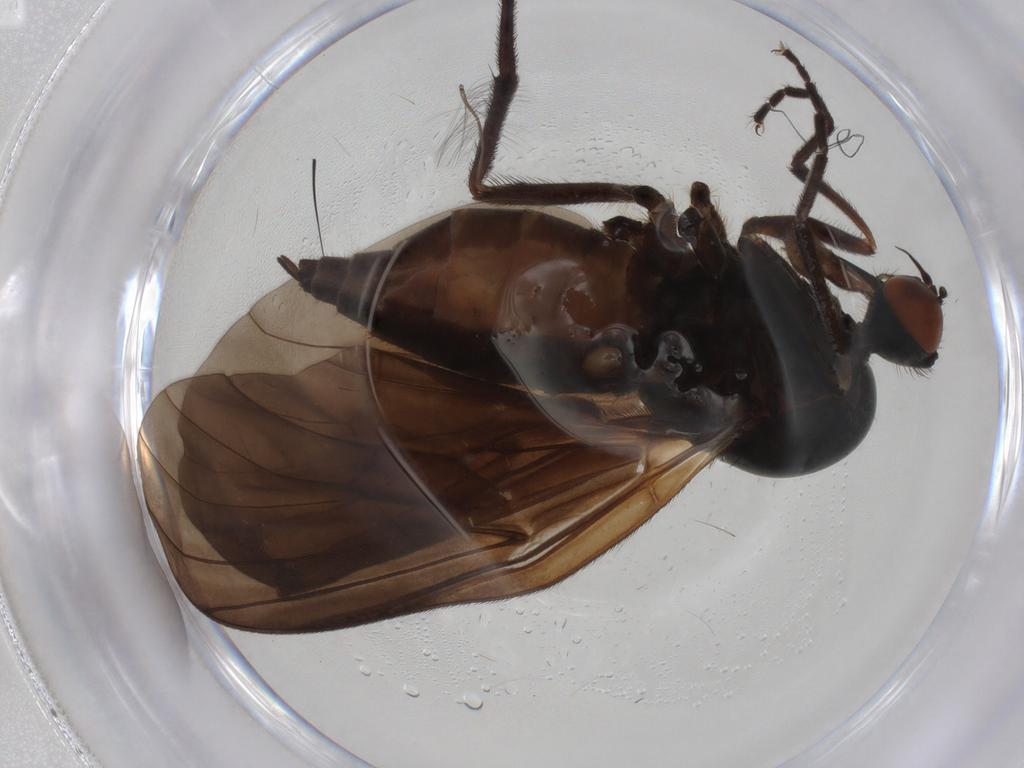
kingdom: Animalia
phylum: Arthropoda
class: Insecta
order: Diptera
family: Empididae
